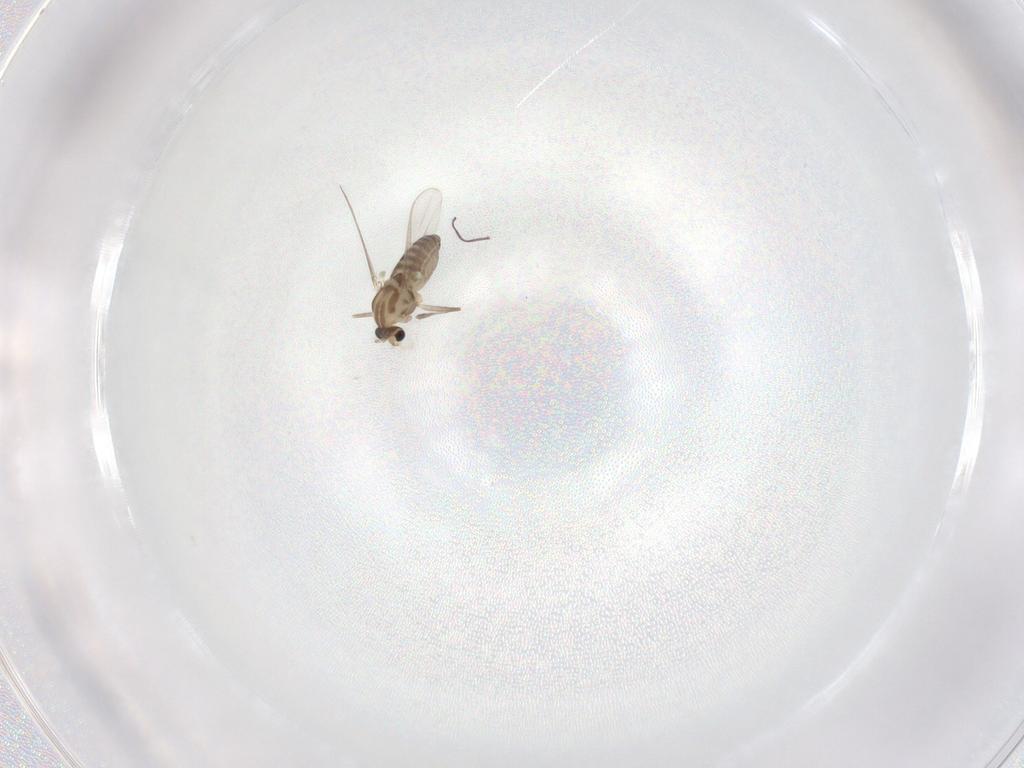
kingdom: Animalia
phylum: Arthropoda
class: Insecta
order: Diptera
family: Chironomidae
